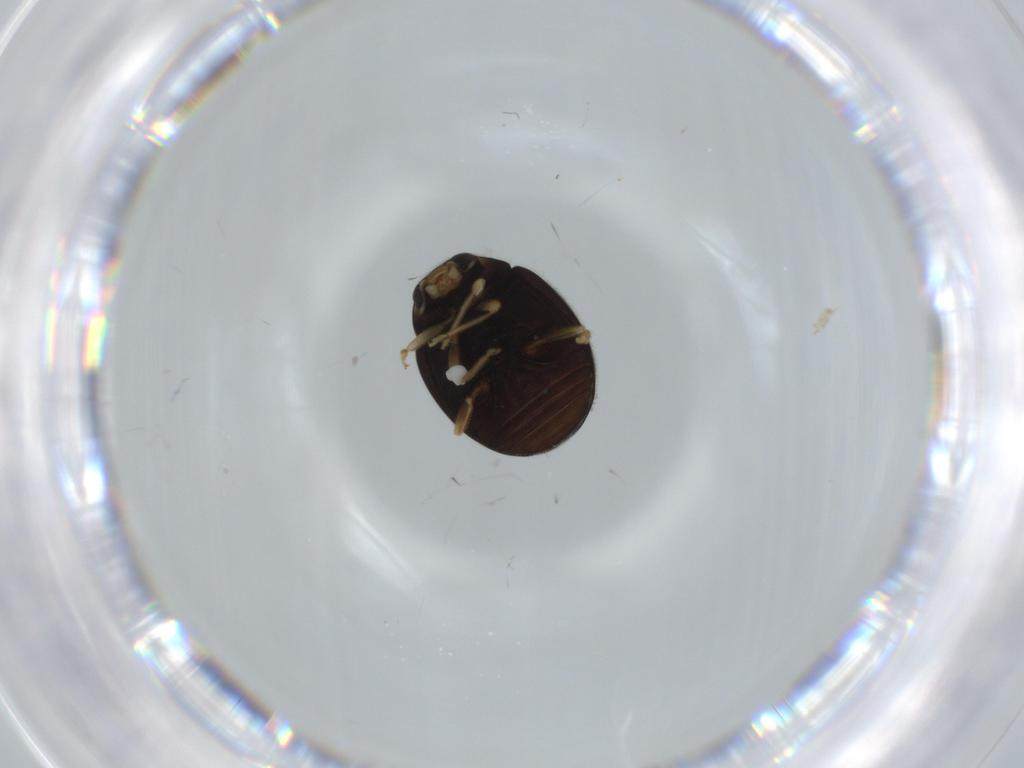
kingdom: Animalia
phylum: Arthropoda
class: Insecta
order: Coleoptera
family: Coccinellidae
